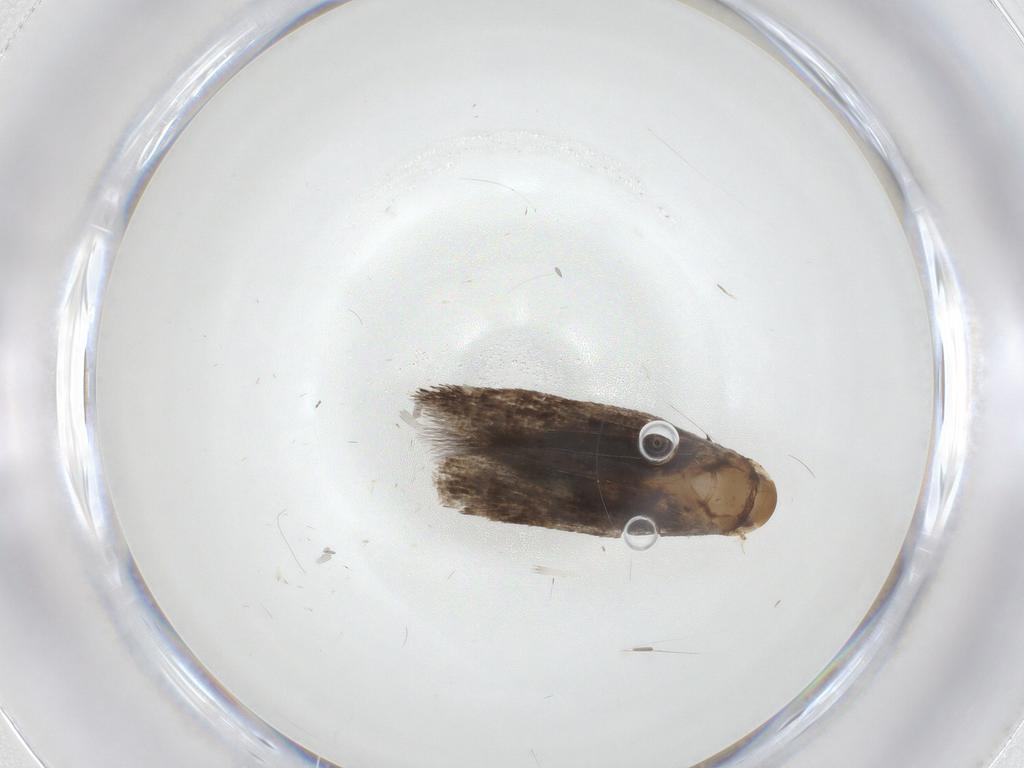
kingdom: Animalia
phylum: Arthropoda
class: Insecta
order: Lepidoptera
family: Momphidae
